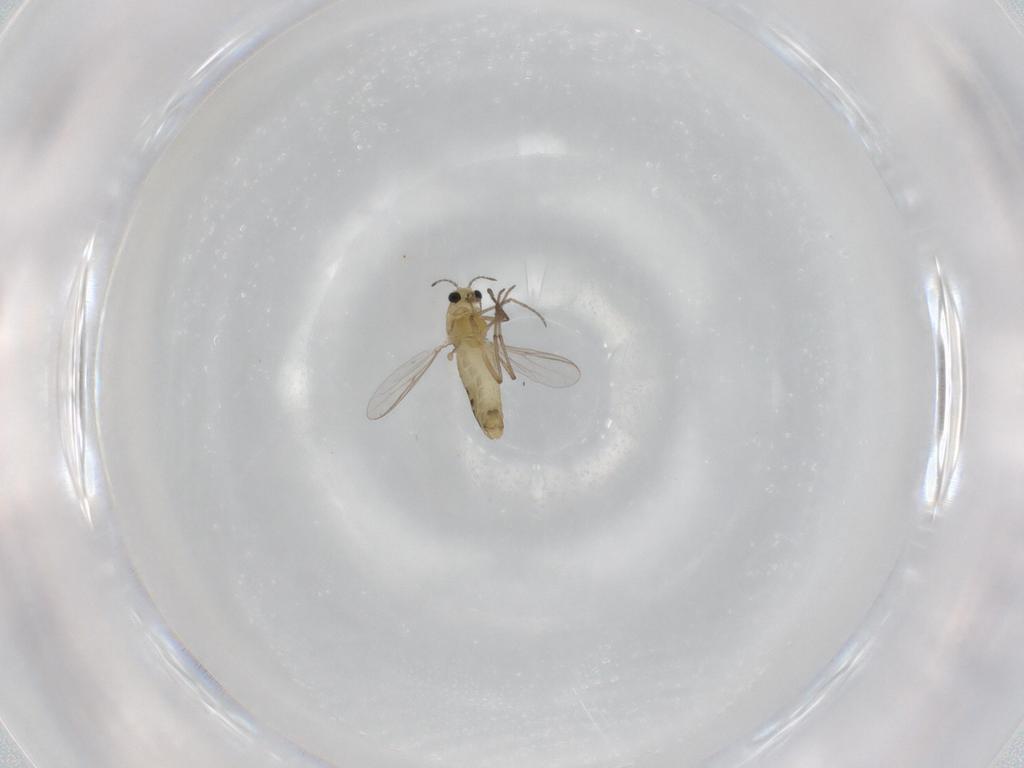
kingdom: Animalia
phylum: Arthropoda
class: Insecta
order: Diptera
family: Chironomidae
